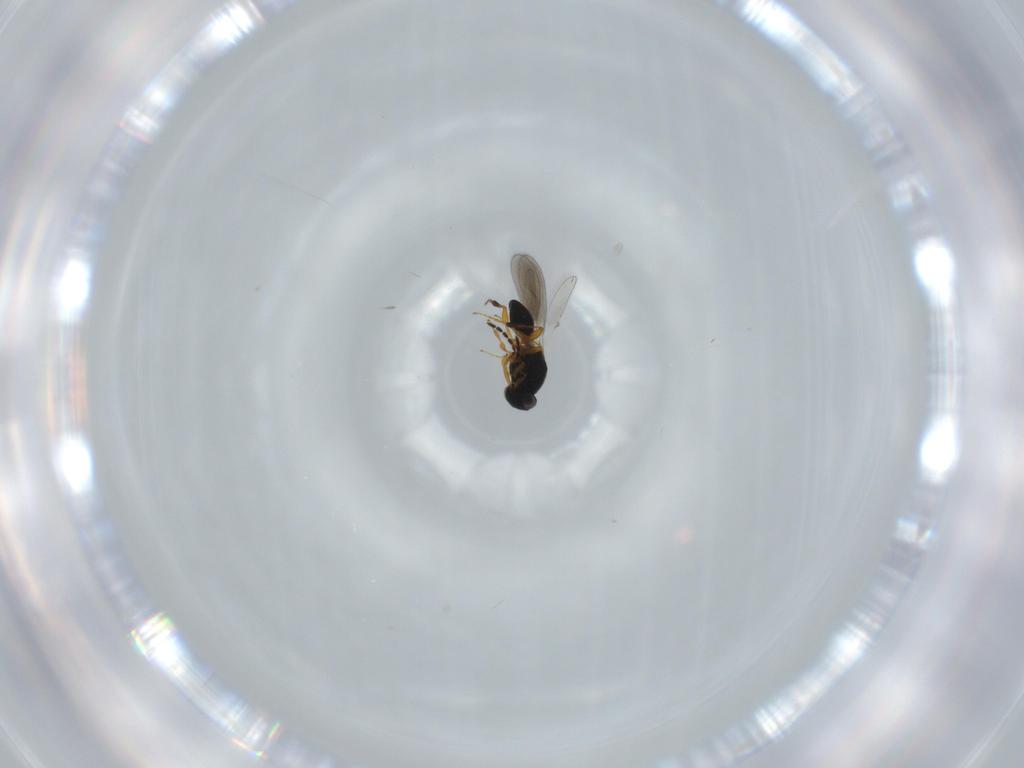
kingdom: Animalia
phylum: Arthropoda
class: Insecta
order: Hymenoptera
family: Platygastridae
